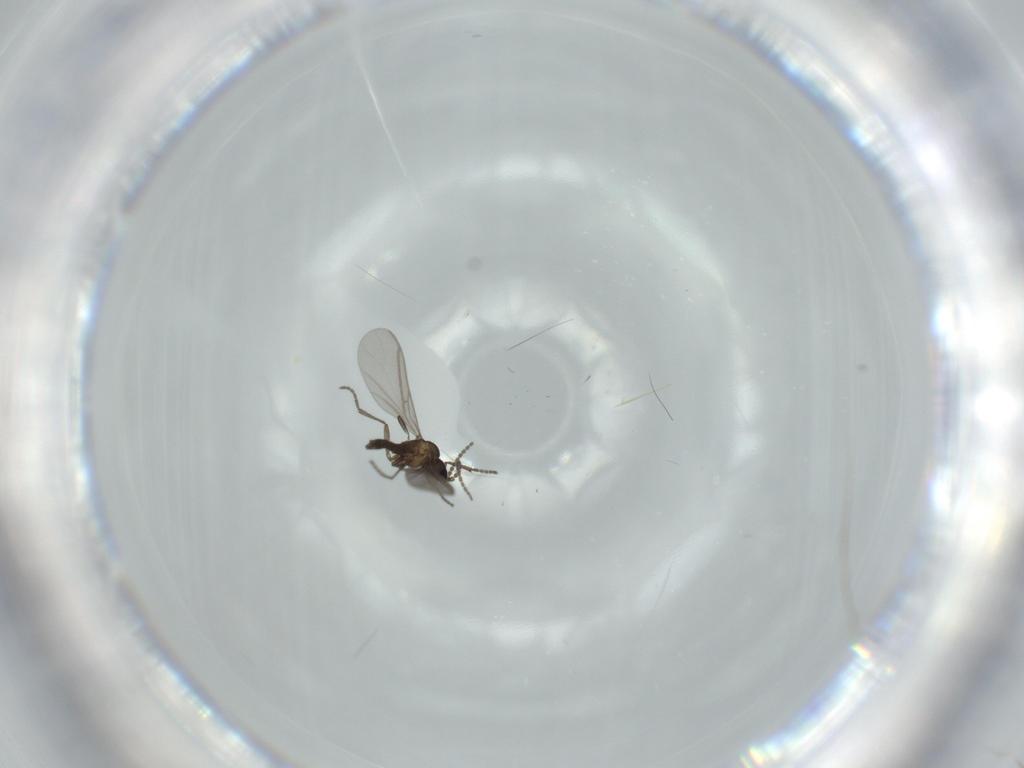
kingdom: Animalia
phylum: Arthropoda
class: Insecta
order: Diptera
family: Sciaridae
